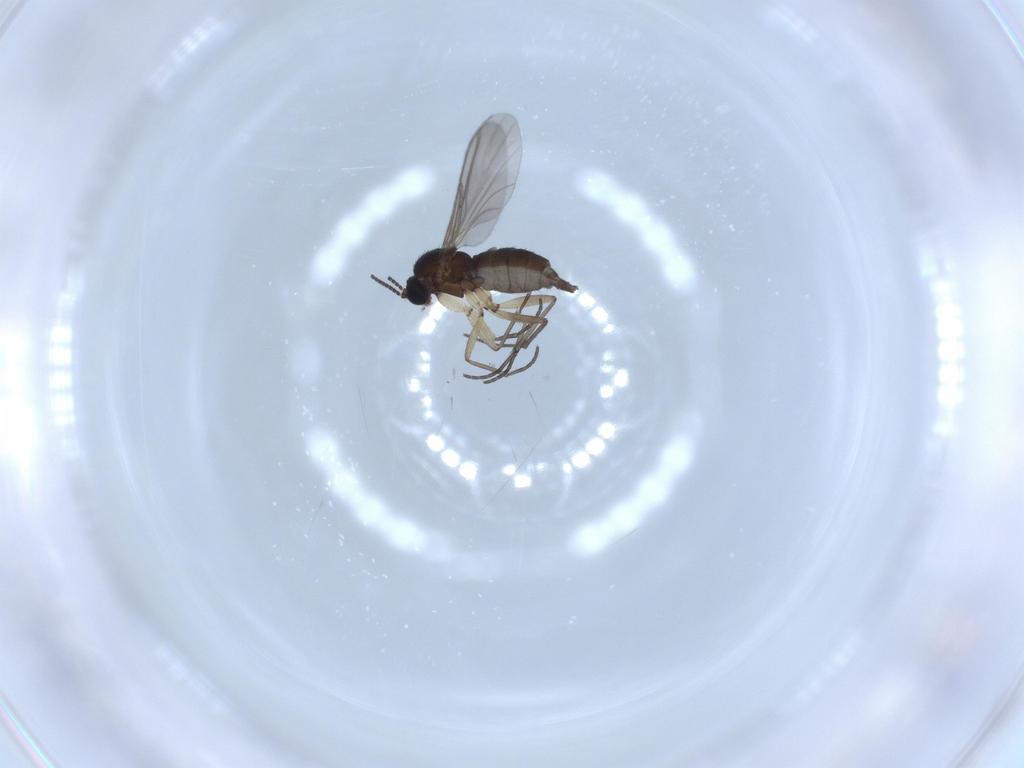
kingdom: Animalia
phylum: Arthropoda
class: Insecta
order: Diptera
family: Sciaridae
